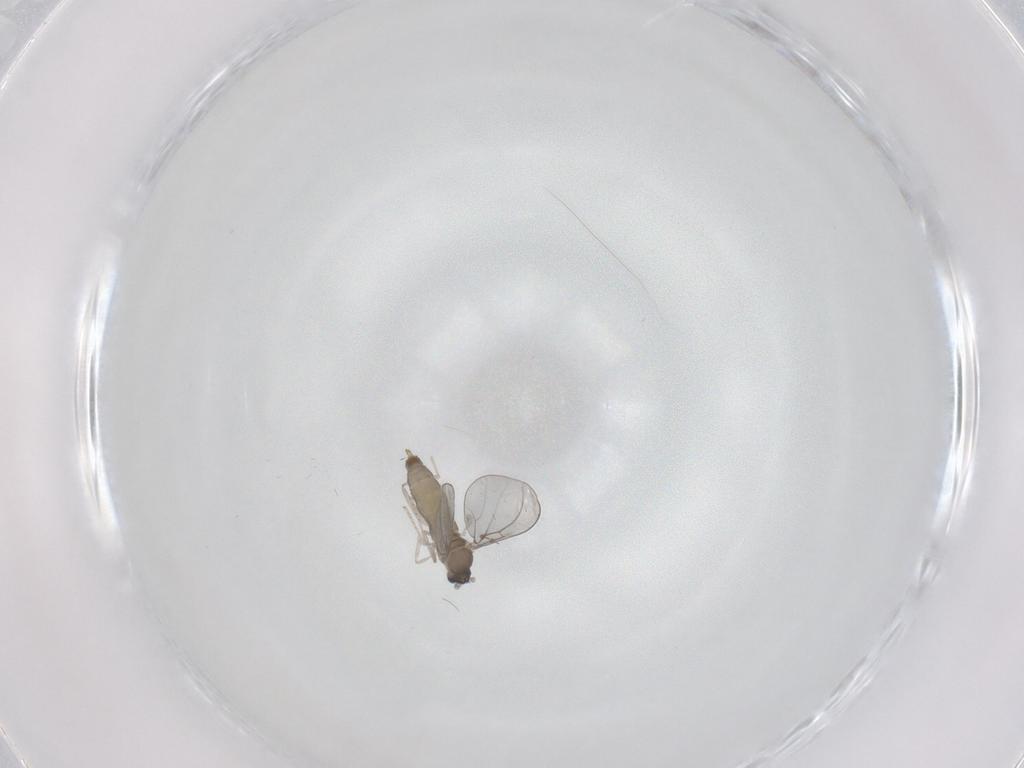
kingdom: Animalia
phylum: Arthropoda
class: Insecta
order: Diptera
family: Cecidomyiidae
